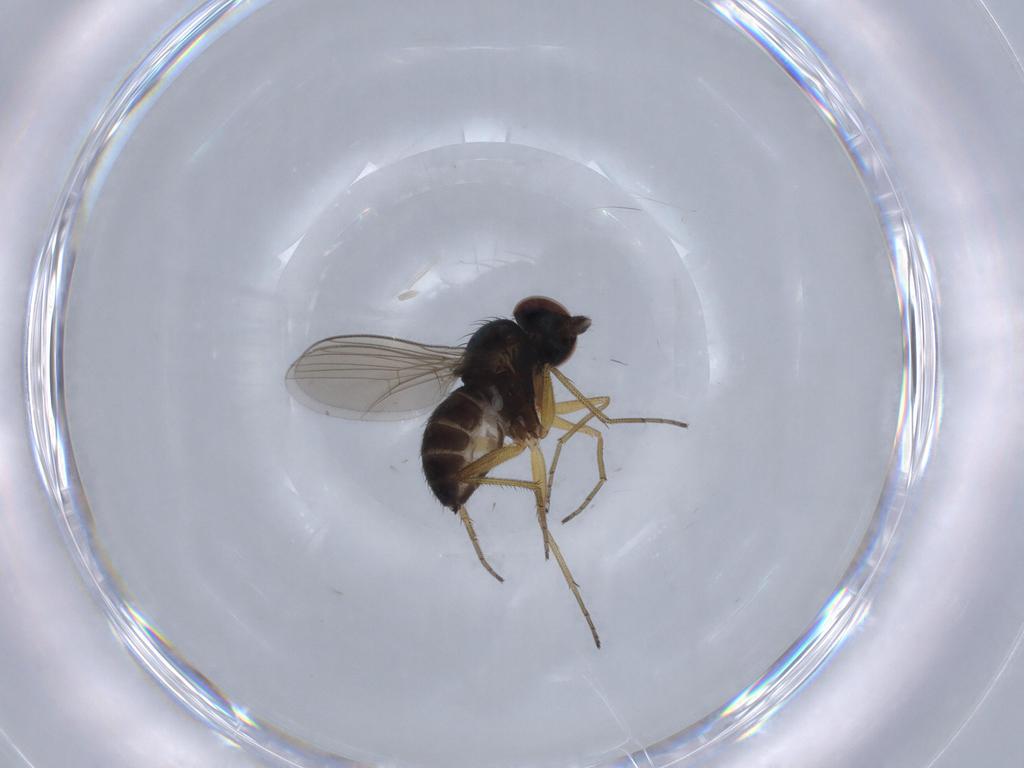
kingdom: Animalia
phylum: Arthropoda
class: Insecta
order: Diptera
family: Dolichopodidae
